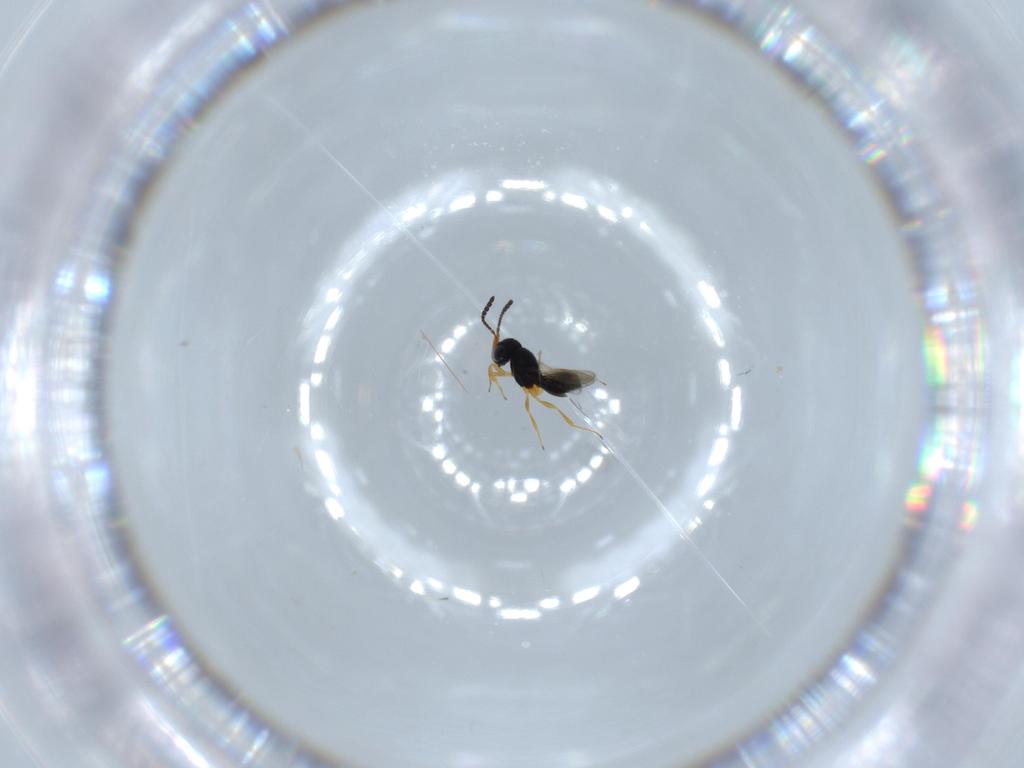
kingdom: Animalia
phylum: Arthropoda
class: Insecta
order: Hymenoptera
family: Scelionidae
